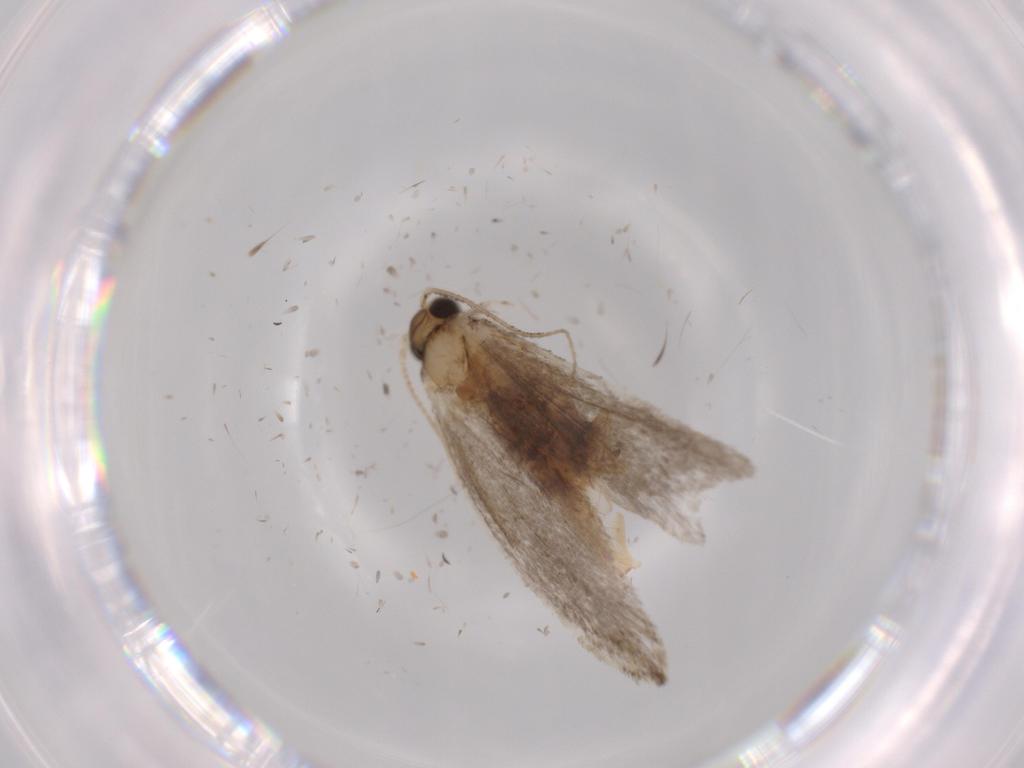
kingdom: Animalia
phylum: Arthropoda
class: Insecta
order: Lepidoptera
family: Tineidae
